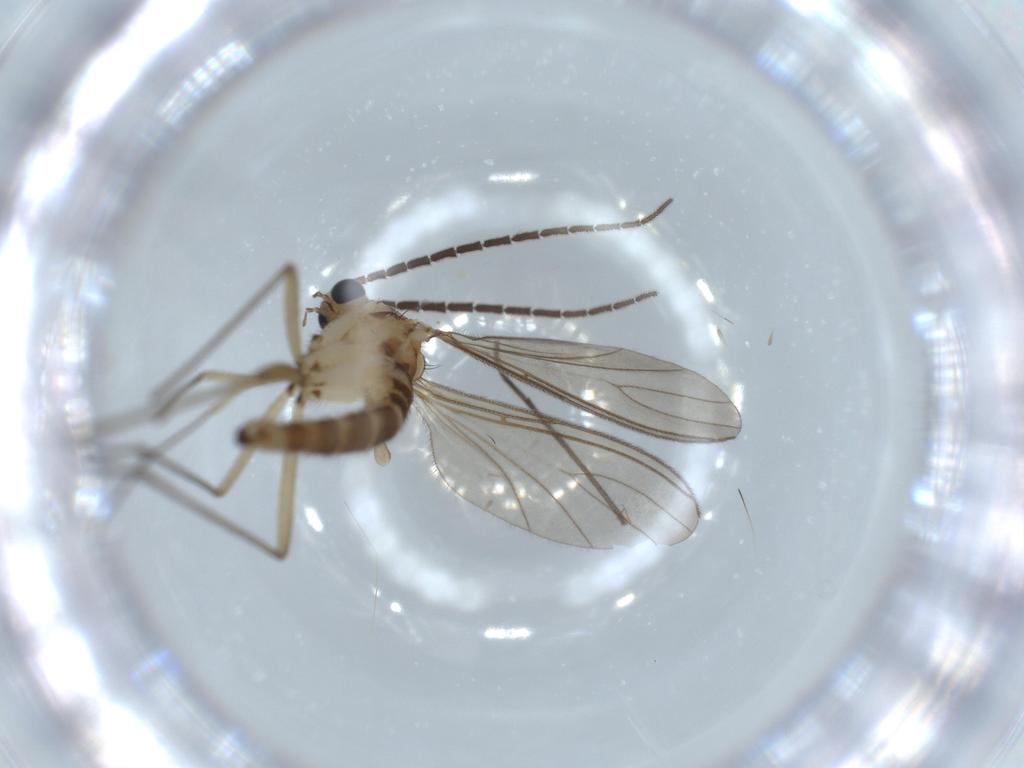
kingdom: Animalia
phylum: Arthropoda
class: Insecta
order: Diptera
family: Sciaridae
